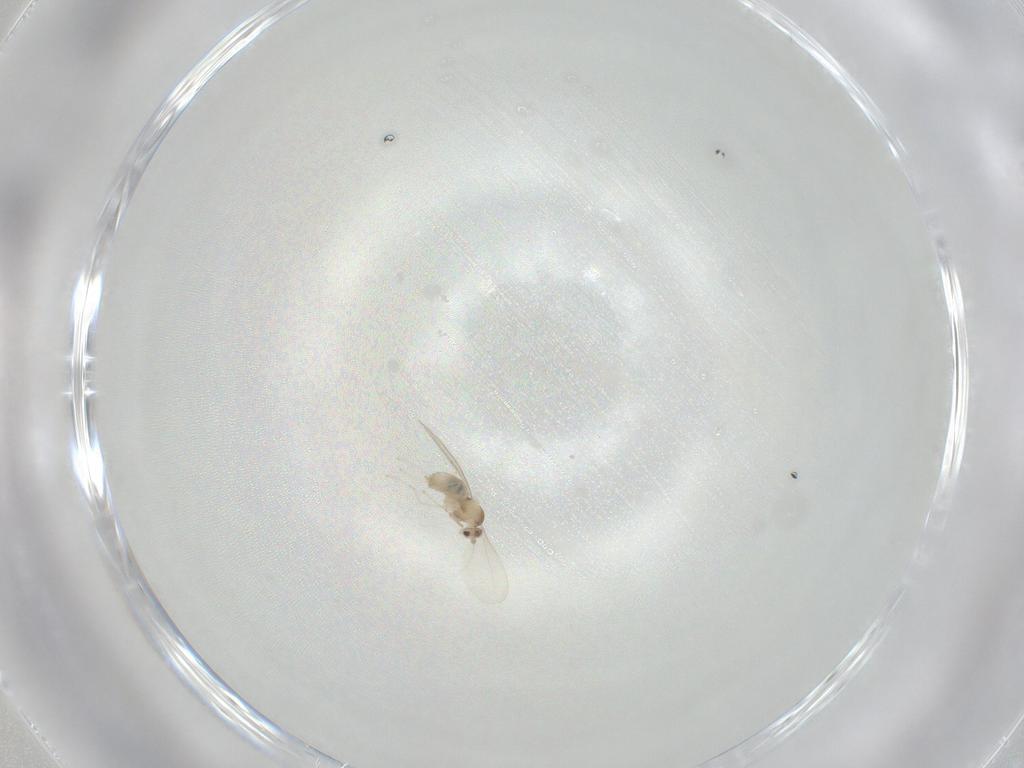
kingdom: Animalia
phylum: Arthropoda
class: Insecta
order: Diptera
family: Cecidomyiidae
